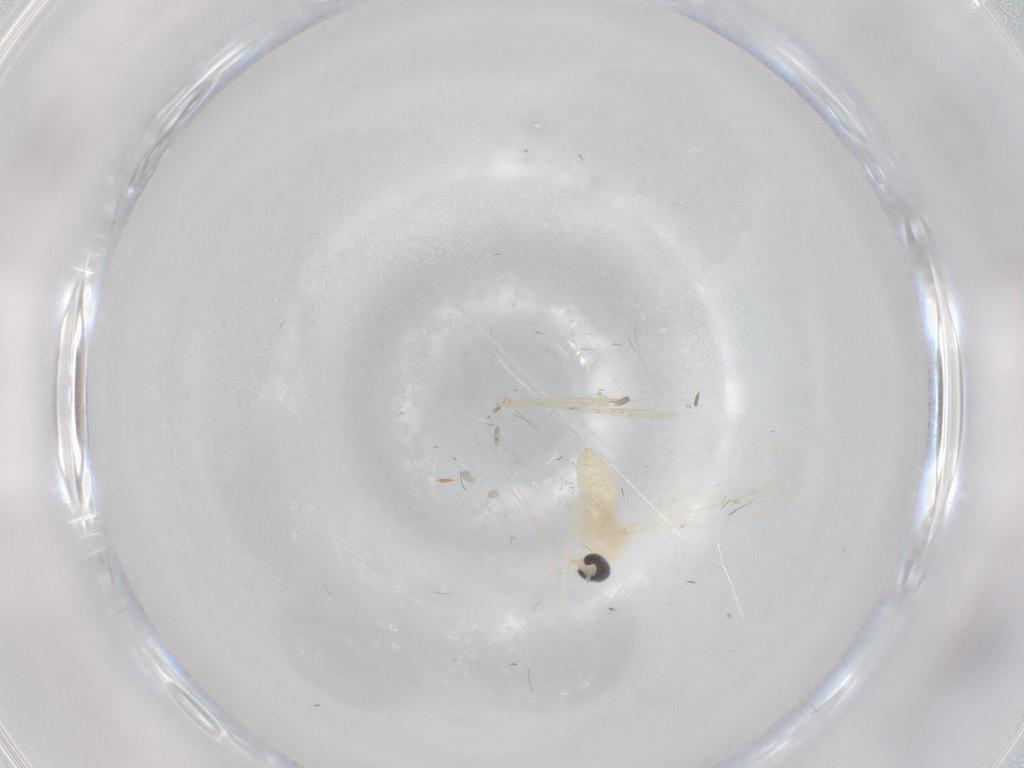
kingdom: Animalia
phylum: Arthropoda
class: Insecta
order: Diptera
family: Cecidomyiidae
